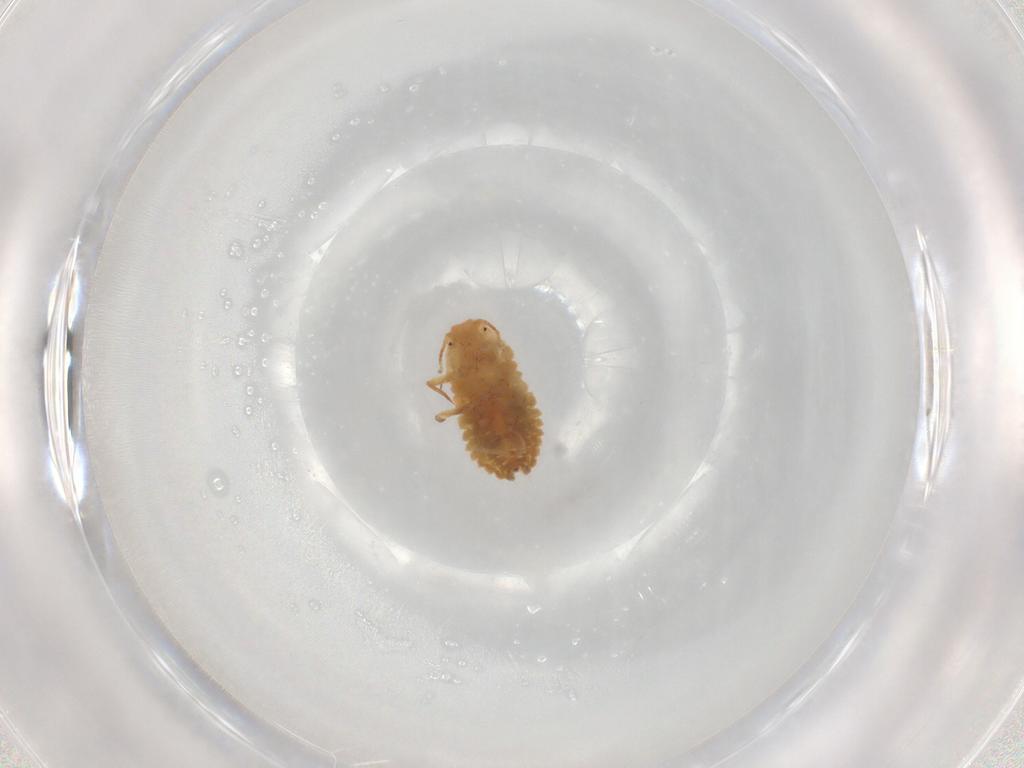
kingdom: Animalia
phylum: Arthropoda
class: Insecta
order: Hemiptera
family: Pseudococcidae
